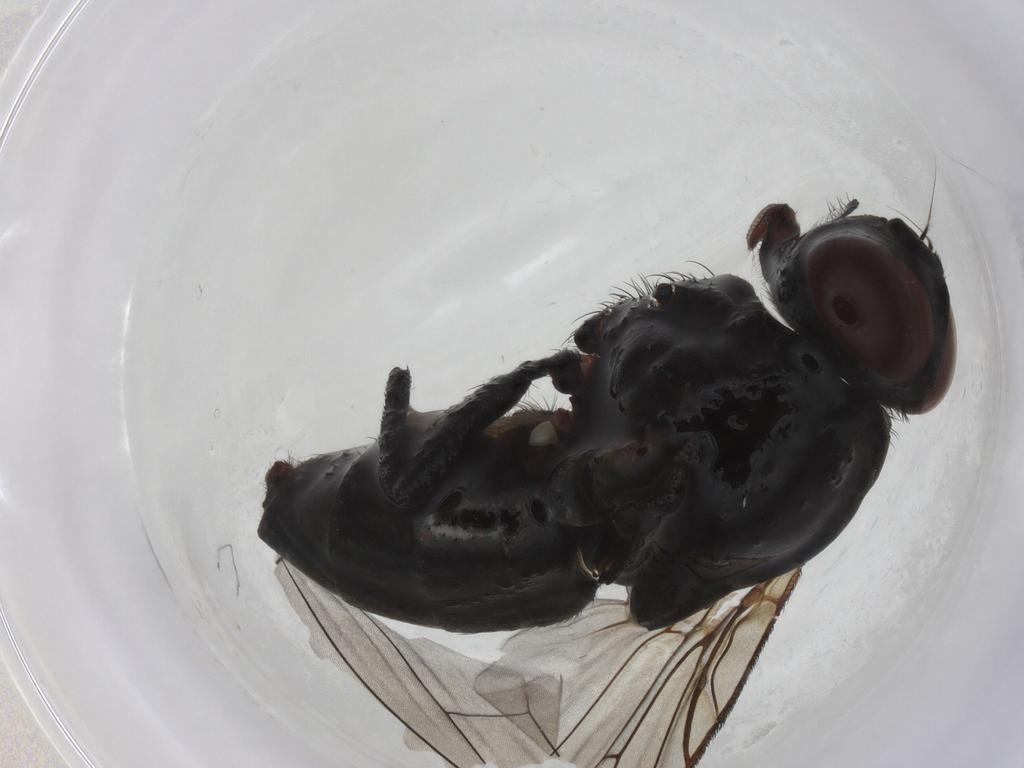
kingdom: Animalia
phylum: Arthropoda
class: Insecta
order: Diptera
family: Muscidae
